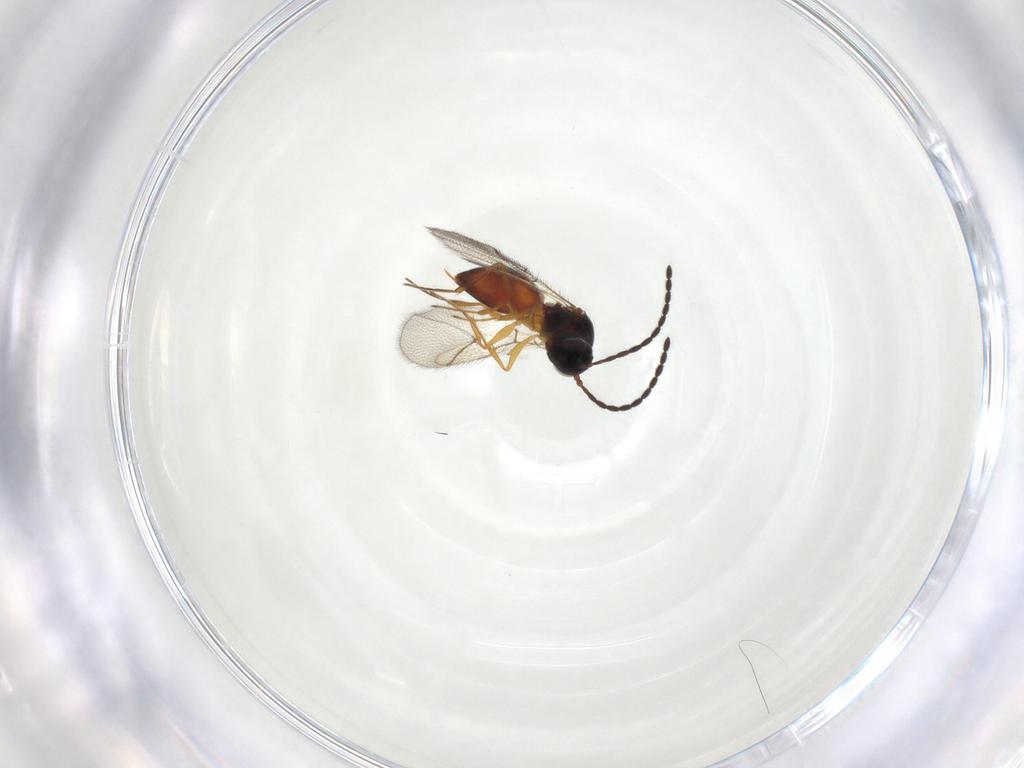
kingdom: Animalia
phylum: Arthropoda
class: Insecta
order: Hymenoptera
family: Figitidae
